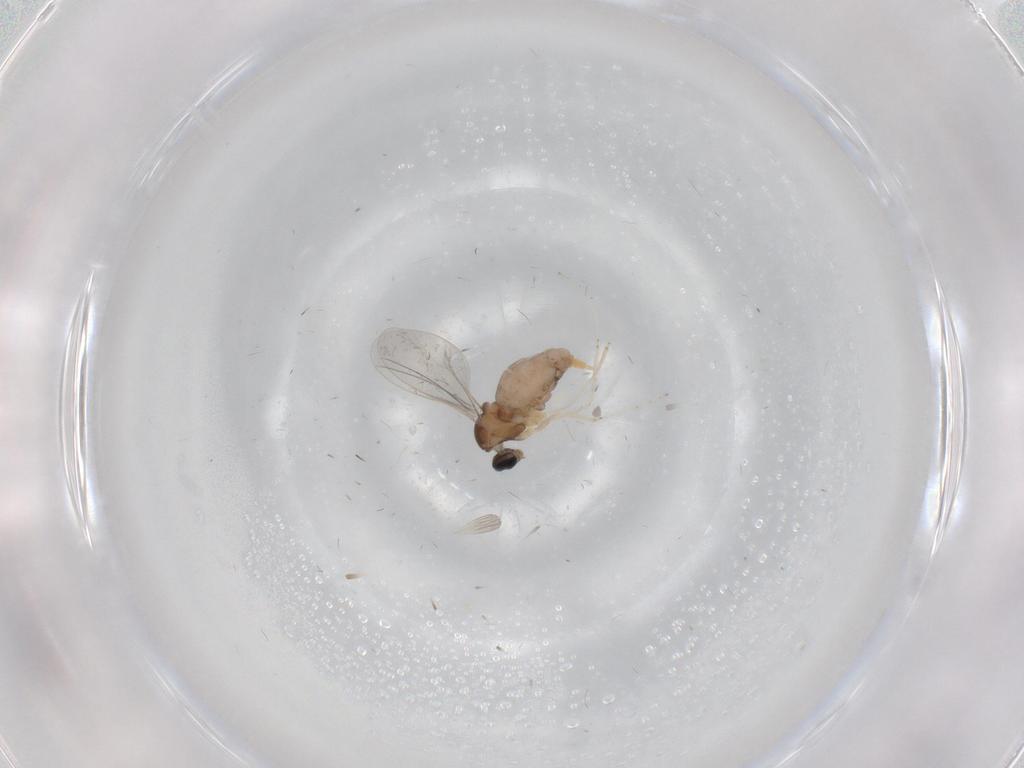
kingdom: Animalia
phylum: Arthropoda
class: Insecta
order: Diptera
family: Cecidomyiidae
